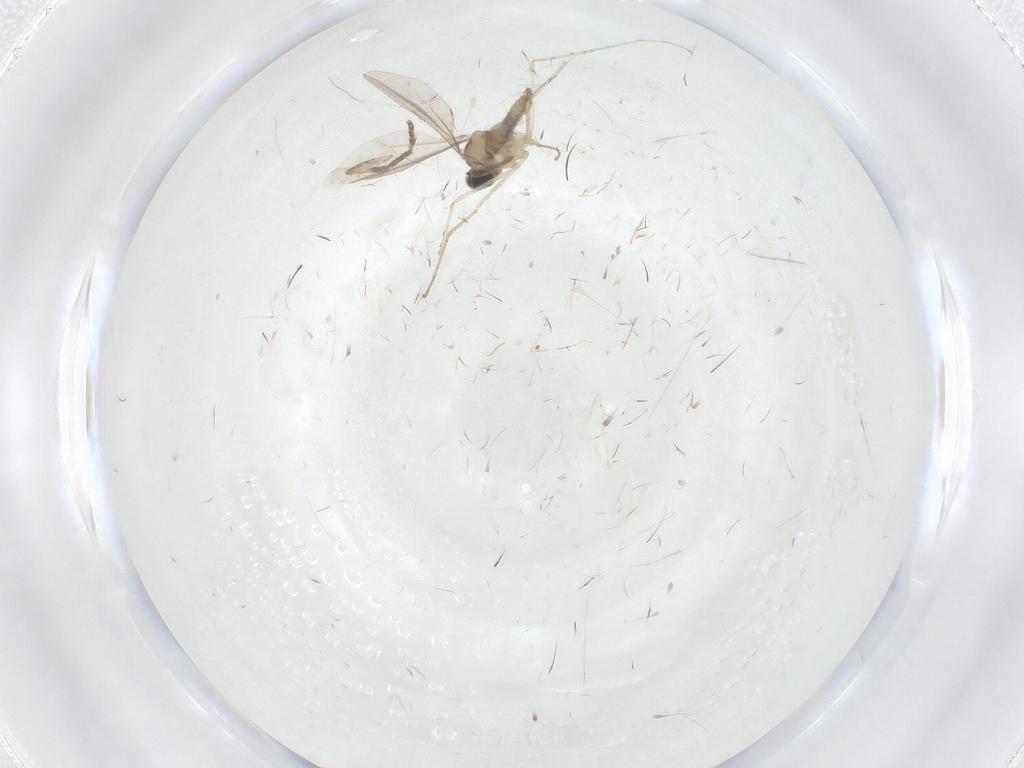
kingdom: Animalia
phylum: Arthropoda
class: Insecta
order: Diptera
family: Cecidomyiidae
